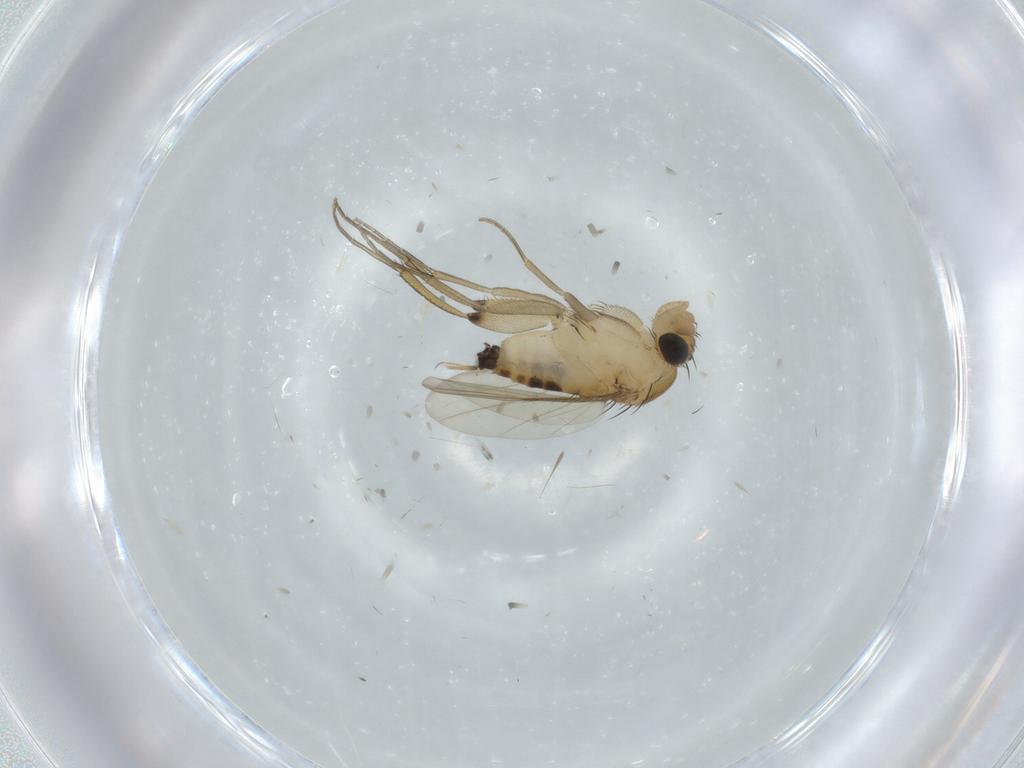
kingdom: Animalia
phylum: Arthropoda
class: Insecta
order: Diptera
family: Phoridae
